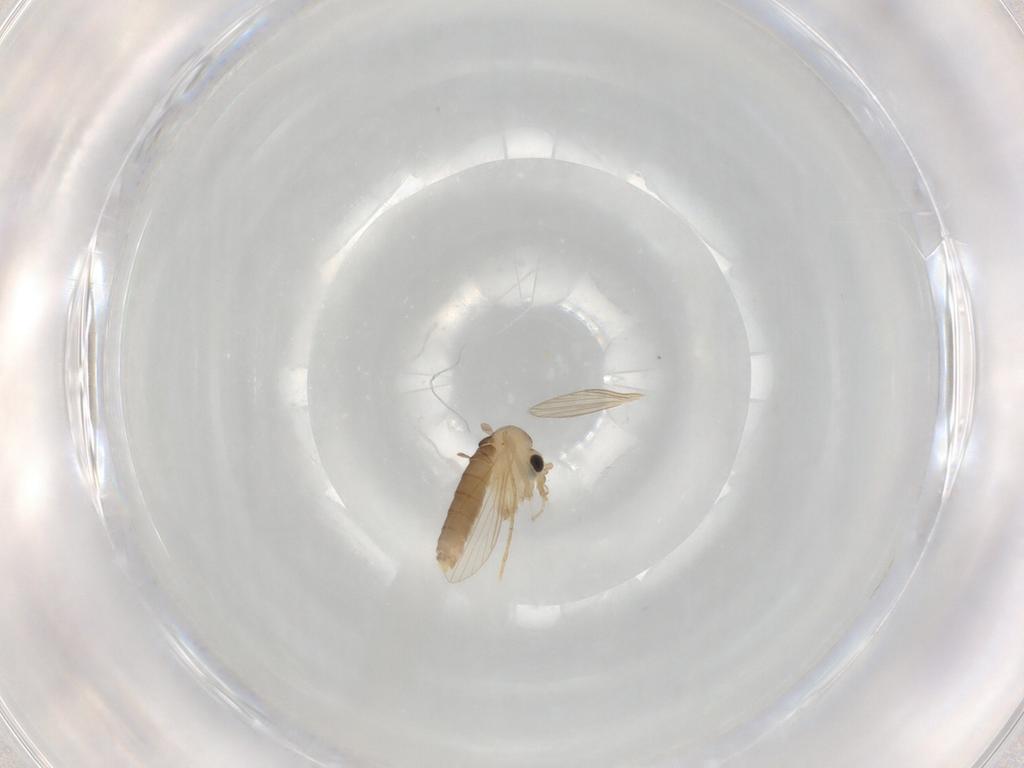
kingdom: Animalia
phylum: Arthropoda
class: Insecta
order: Diptera
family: Psychodidae
